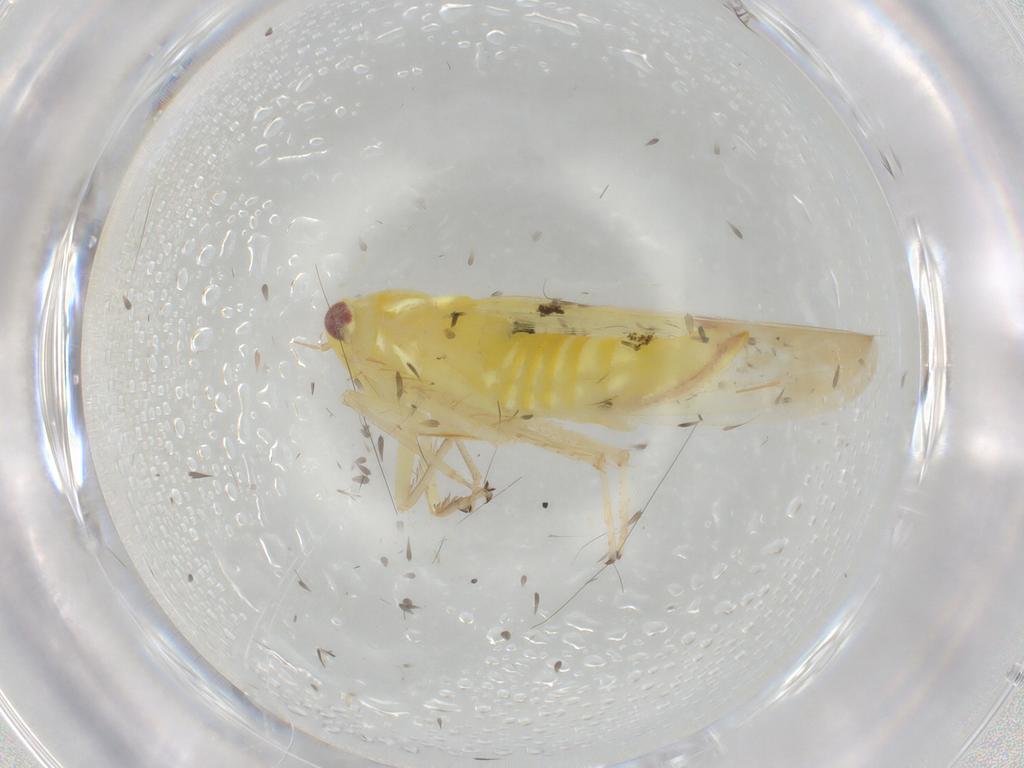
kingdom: Animalia
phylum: Arthropoda
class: Insecta
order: Hemiptera
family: Cicadellidae
